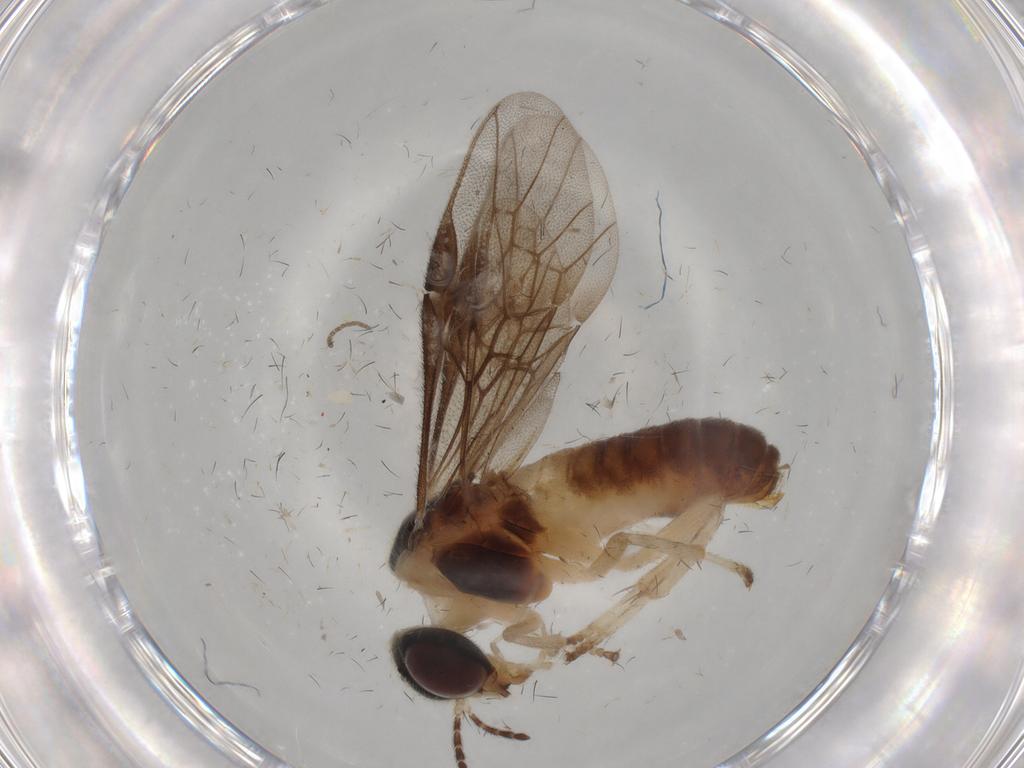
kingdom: Animalia
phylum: Arthropoda
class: Insecta
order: Diptera
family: Sciaridae
